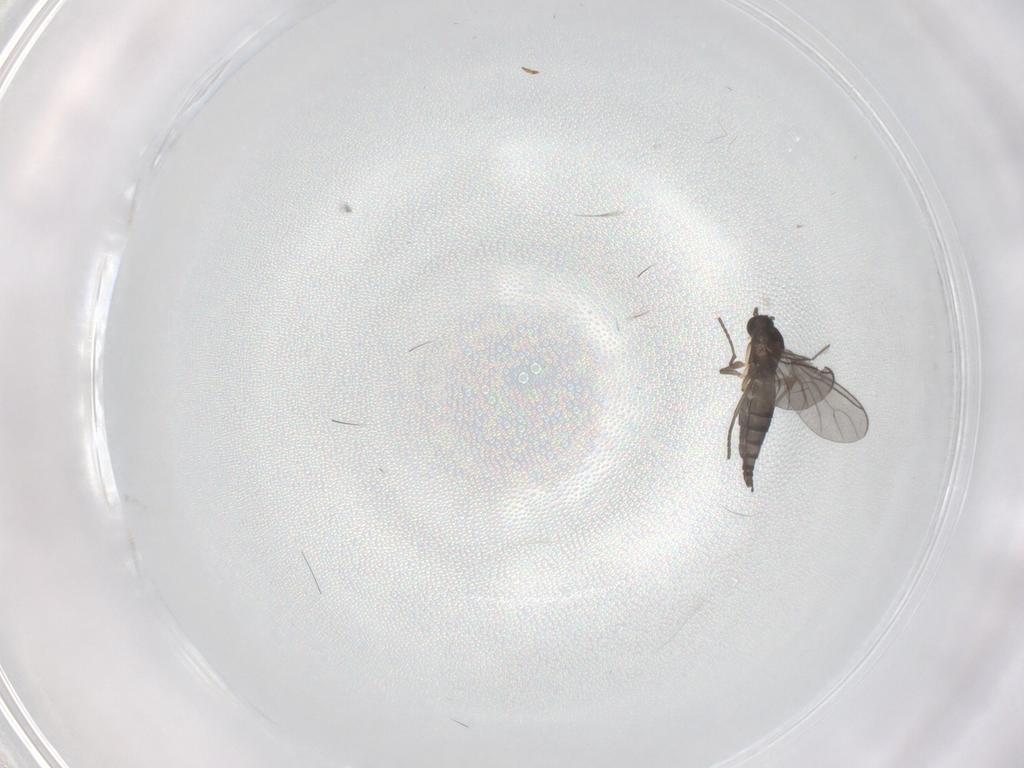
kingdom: Animalia
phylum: Arthropoda
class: Insecta
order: Diptera
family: Sciaridae
